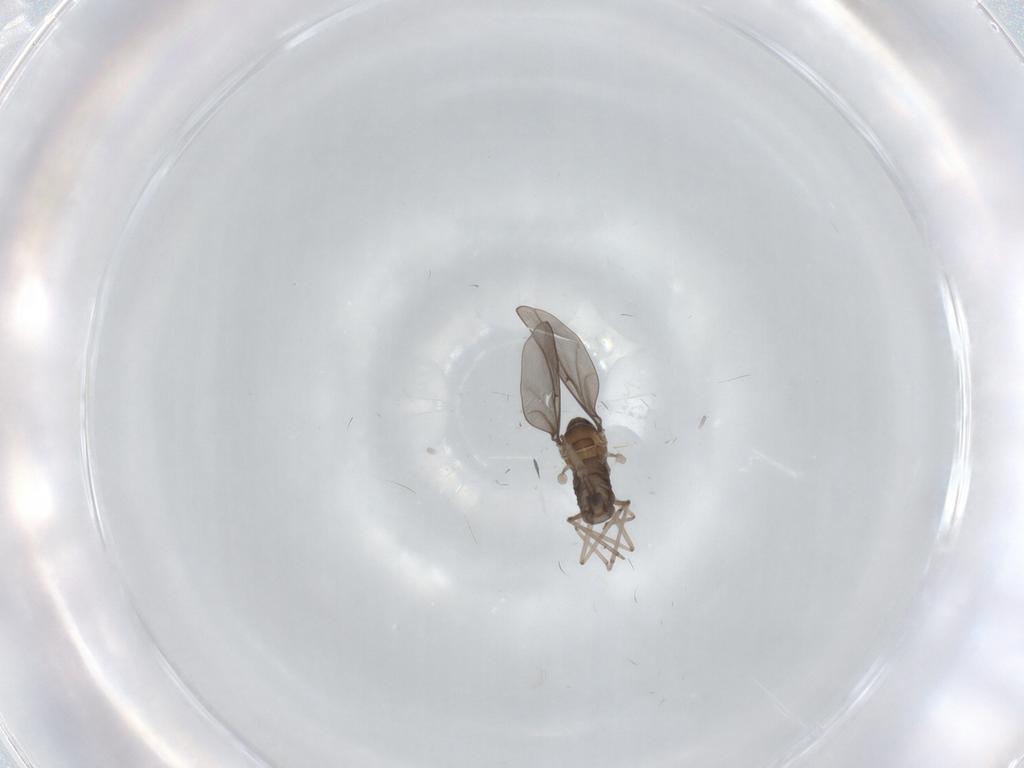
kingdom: Animalia
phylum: Arthropoda
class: Insecta
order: Diptera
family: Cecidomyiidae
